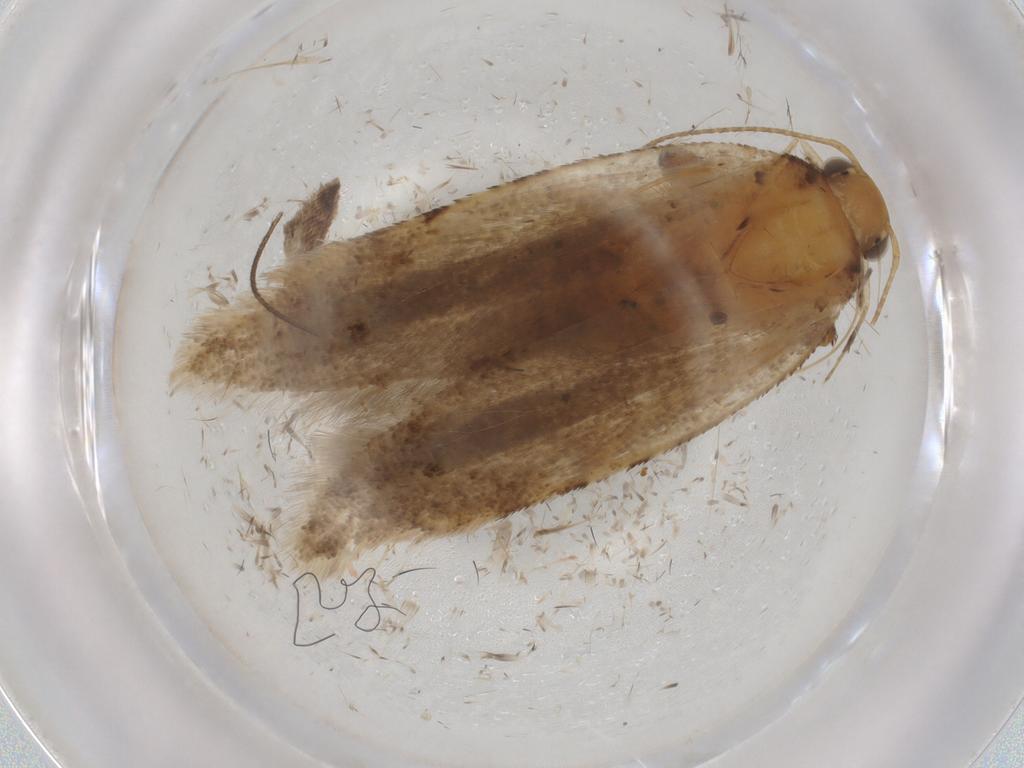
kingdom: Animalia
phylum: Arthropoda
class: Insecta
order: Lepidoptera
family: Gelechiidae
